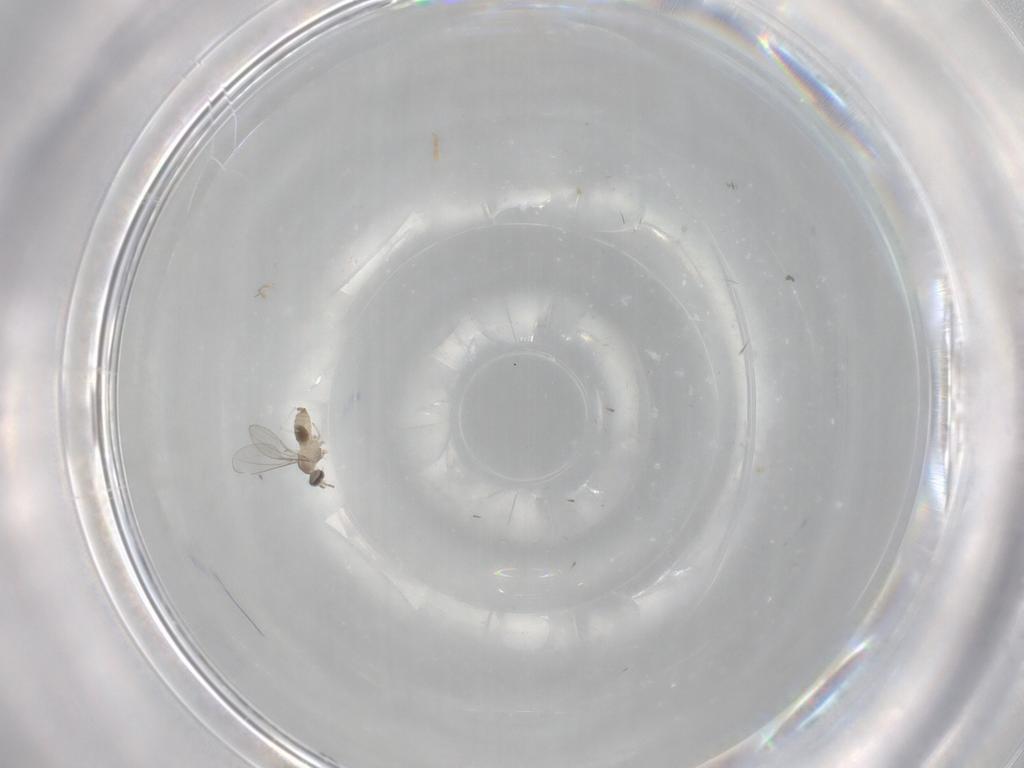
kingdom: Animalia
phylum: Arthropoda
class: Insecta
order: Diptera
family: Cecidomyiidae
